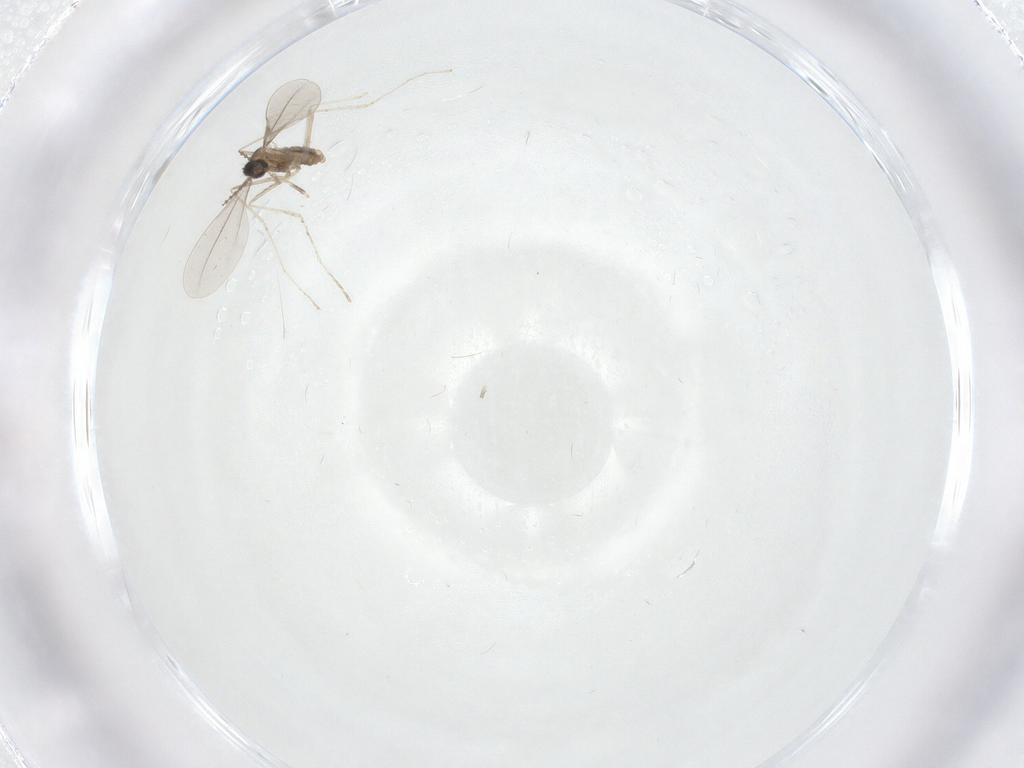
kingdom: Animalia
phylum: Arthropoda
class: Insecta
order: Diptera
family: Cecidomyiidae
